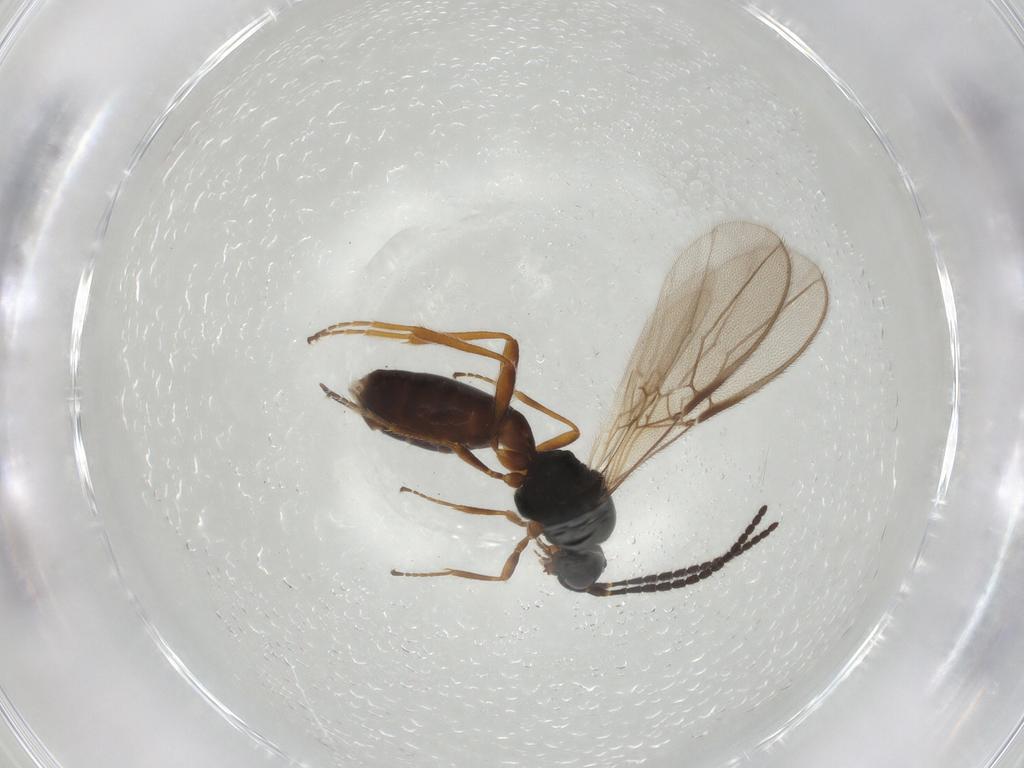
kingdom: Animalia
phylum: Arthropoda
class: Insecta
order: Hymenoptera
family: Braconidae
